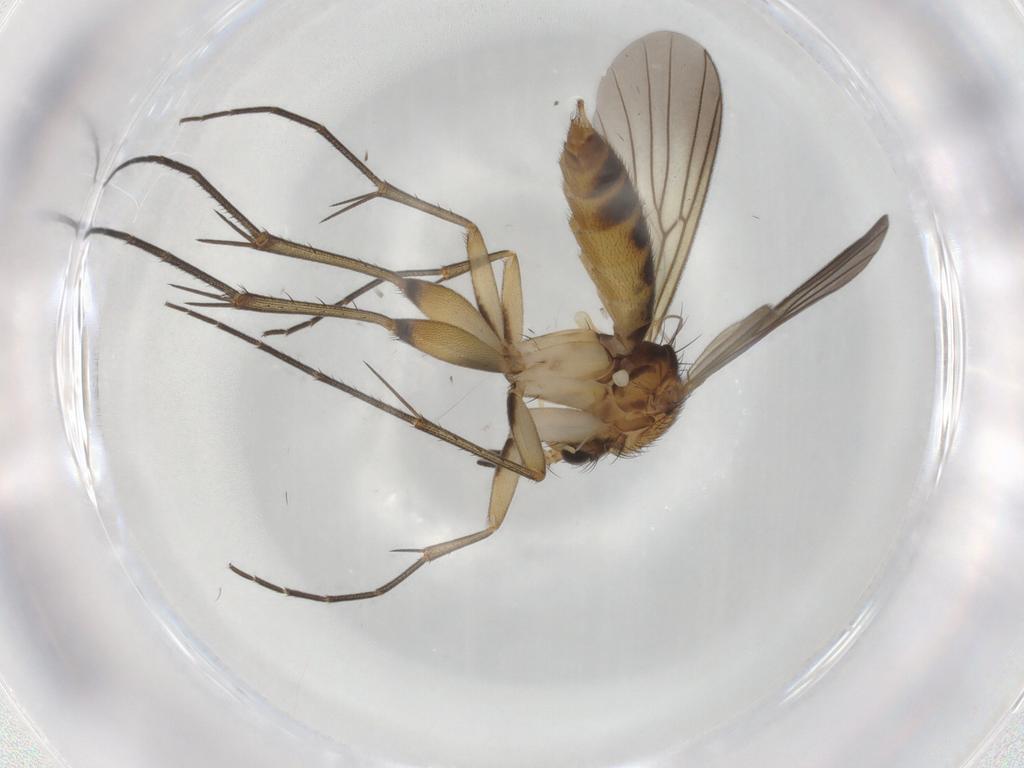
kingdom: Animalia
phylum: Arthropoda
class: Insecta
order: Diptera
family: Mycetophilidae
